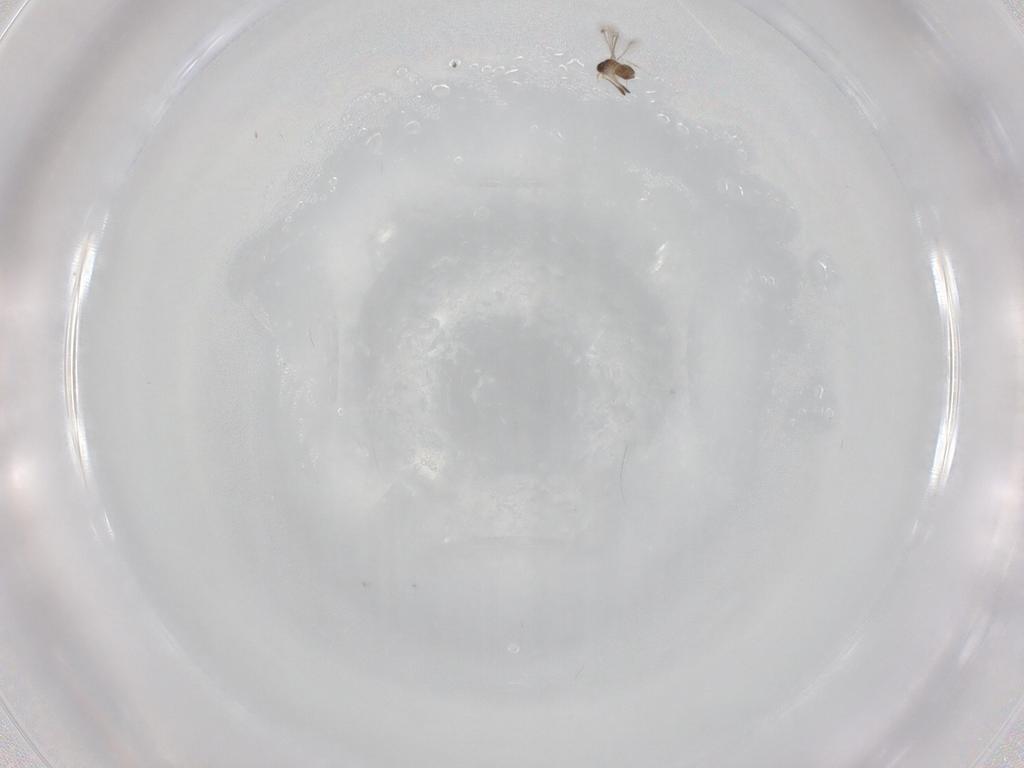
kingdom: Animalia
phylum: Arthropoda
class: Insecta
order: Hymenoptera
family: Mymaridae
